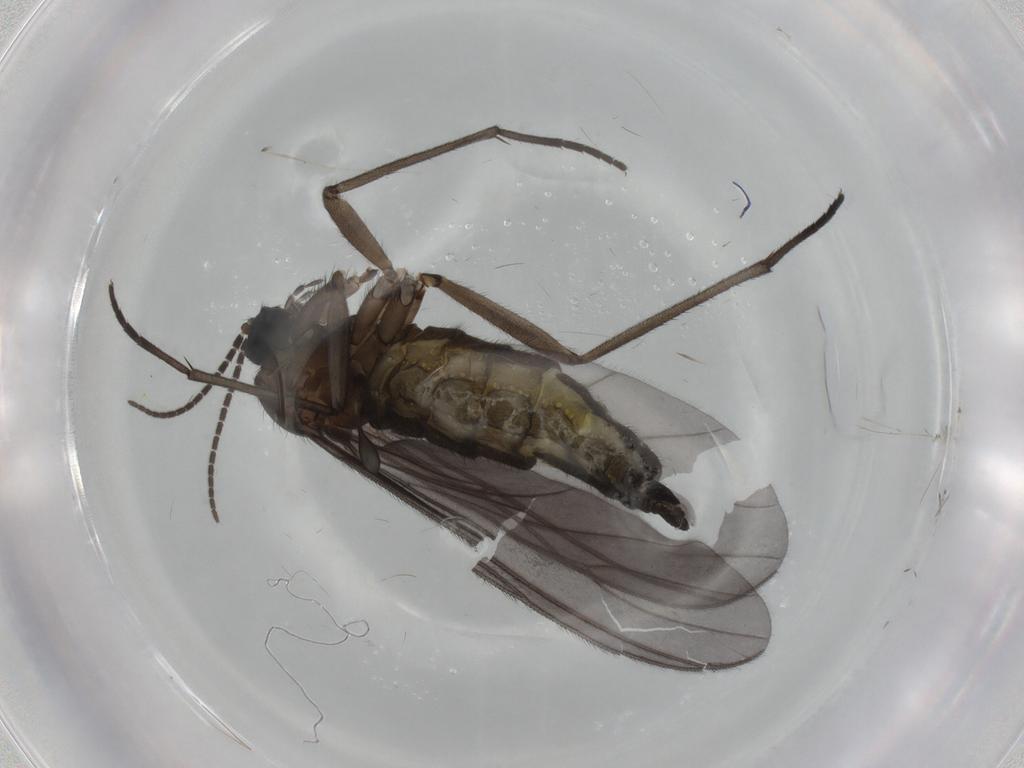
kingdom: Animalia
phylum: Arthropoda
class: Insecta
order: Diptera
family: Sciaridae
